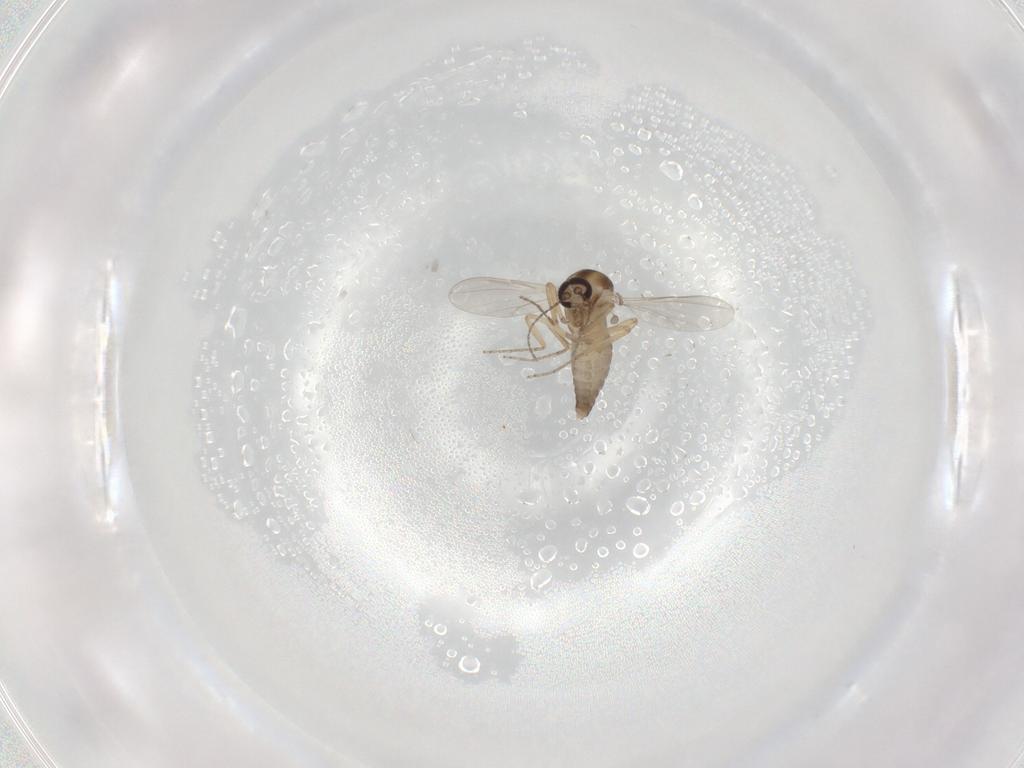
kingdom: Animalia
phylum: Arthropoda
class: Insecta
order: Diptera
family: Ceratopogonidae
